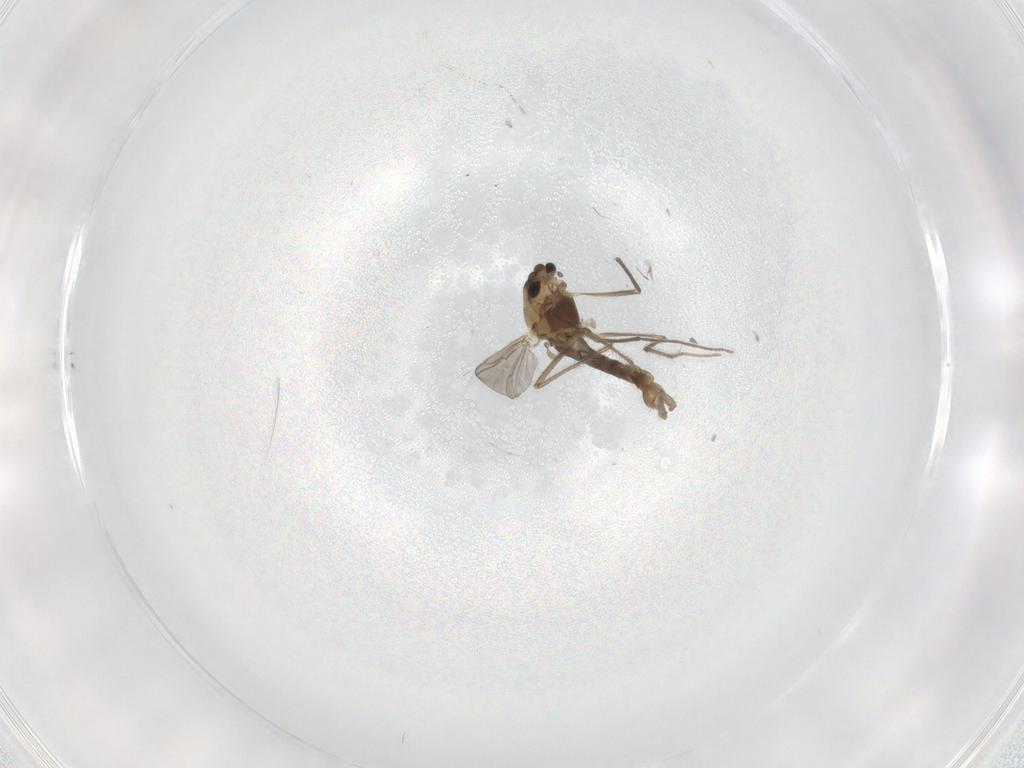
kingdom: Animalia
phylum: Arthropoda
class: Insecta
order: Diptera
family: Chironomidae
